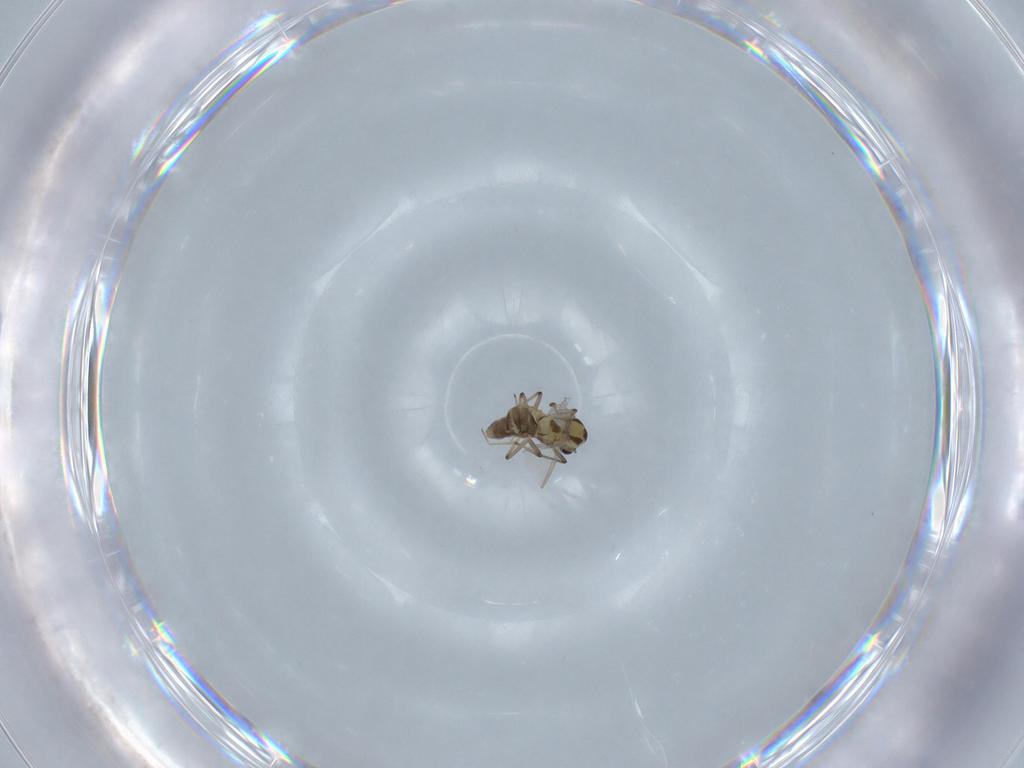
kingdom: Animalia
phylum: Arthropoda
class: Insecta
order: Diptera
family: Chironomidae
